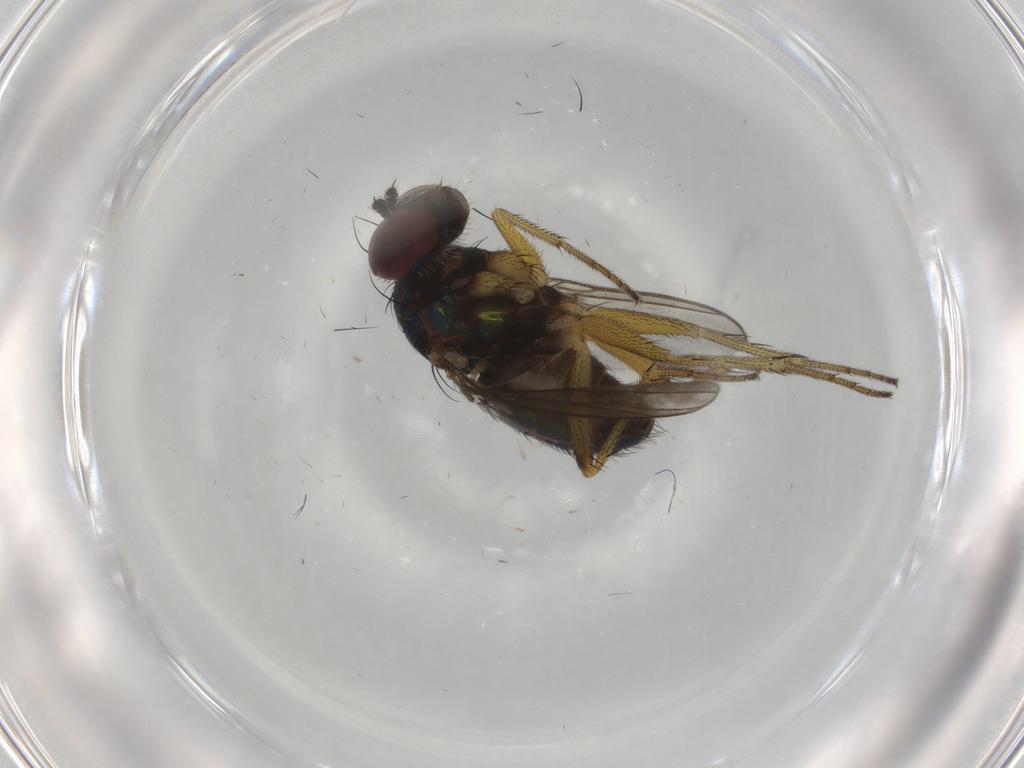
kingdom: Animalia
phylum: Arthropoda
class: Insecta
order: Diptera
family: Dolichopodidae
